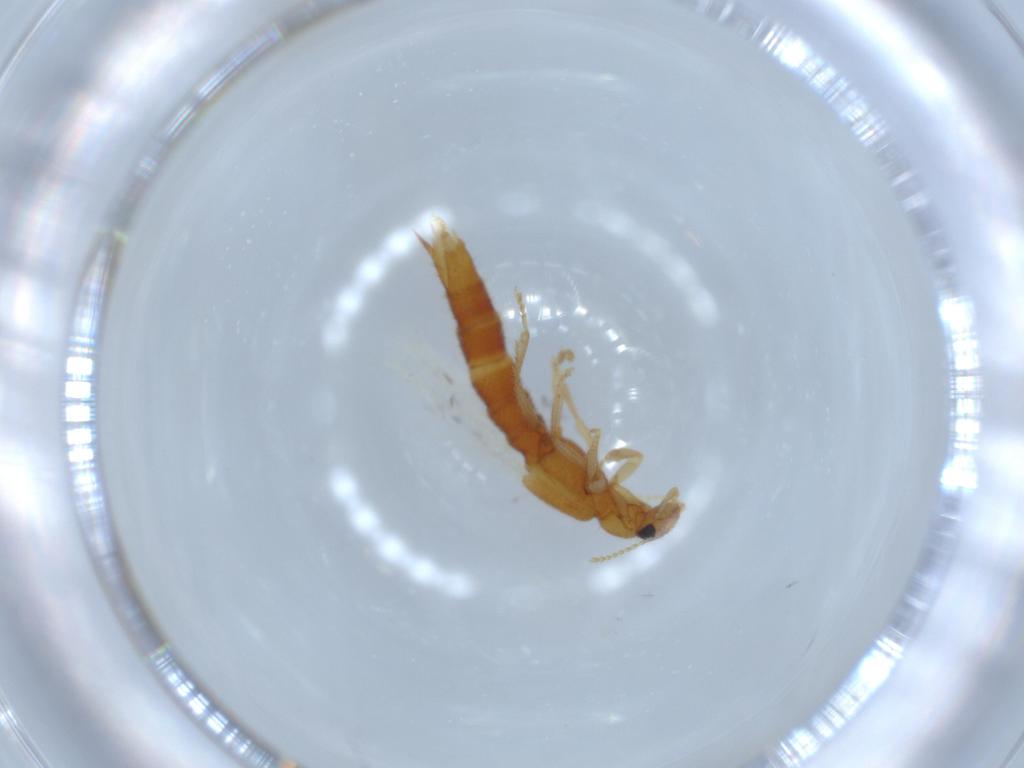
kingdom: Animalia
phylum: Arthropoda
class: Insecta
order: Coleoptera
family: Staphylinidae
